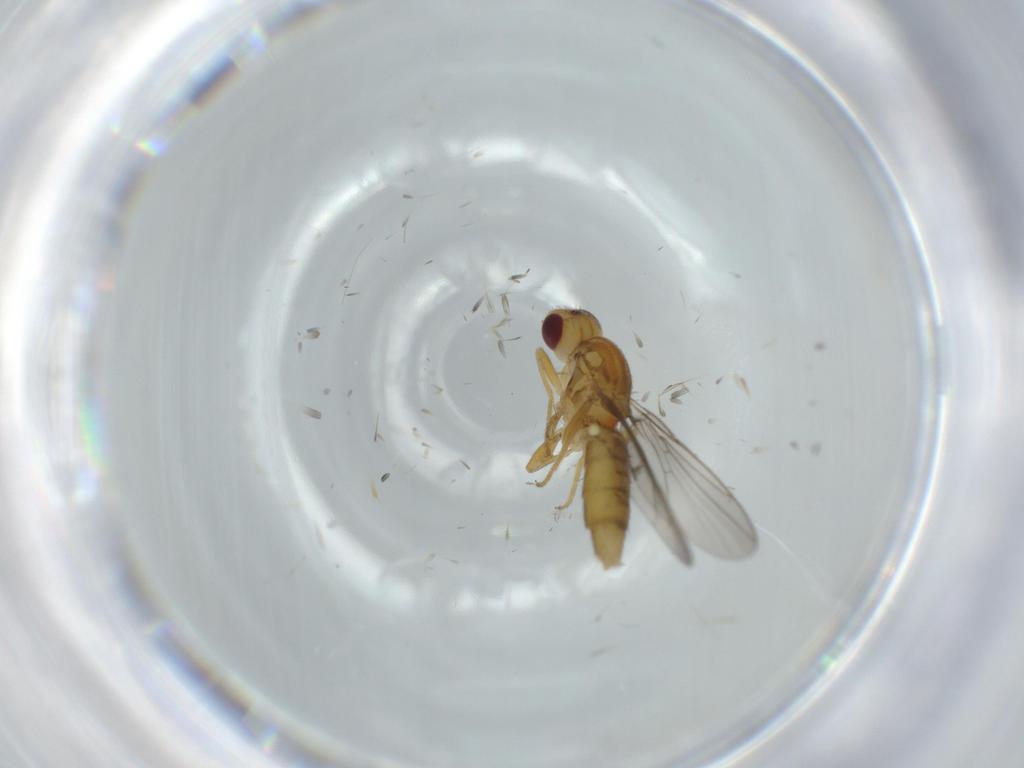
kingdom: Animalia
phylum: Arthropoda
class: Insecta
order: Diptera
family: Chloropidae
